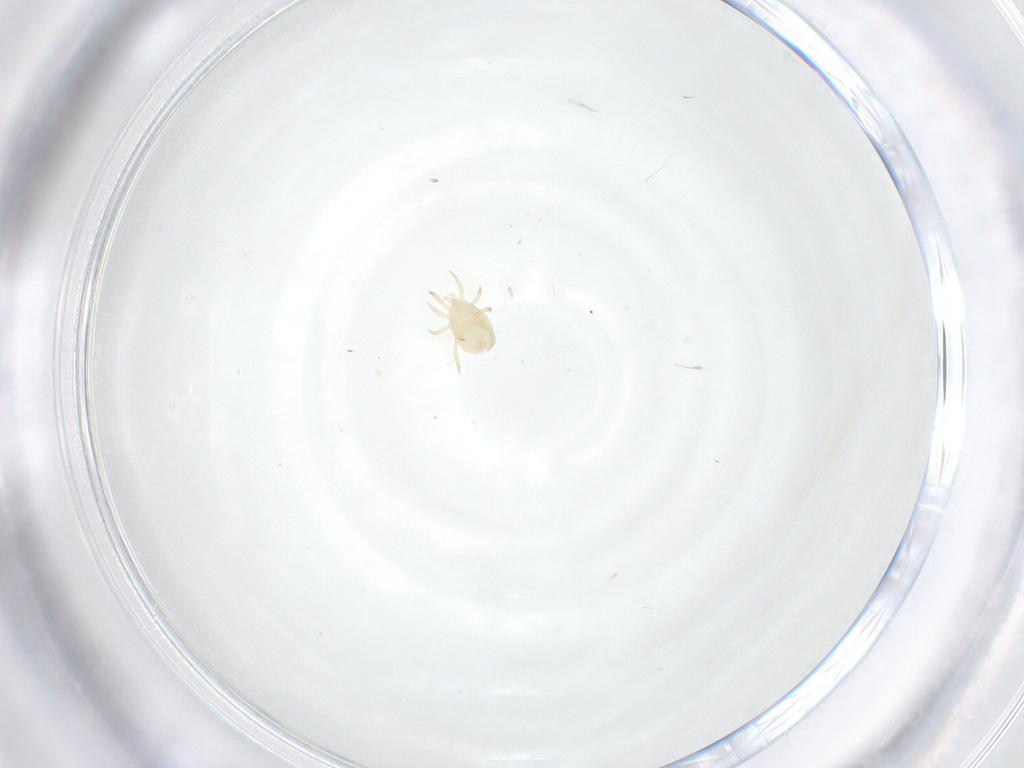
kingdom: Animalia
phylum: Arthropoda
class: Arachnida
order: Mesostigmata
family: Ameroseiidae
